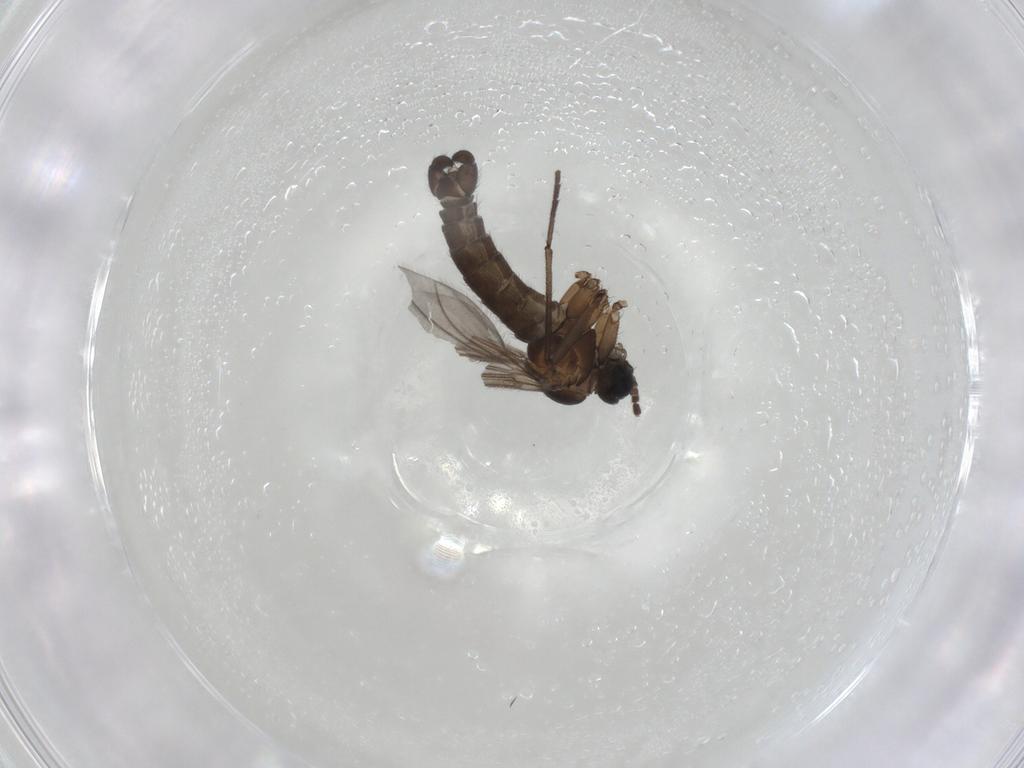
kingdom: Animalia
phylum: Arthropoda
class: Insecta
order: Diptera
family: Sciaridae
